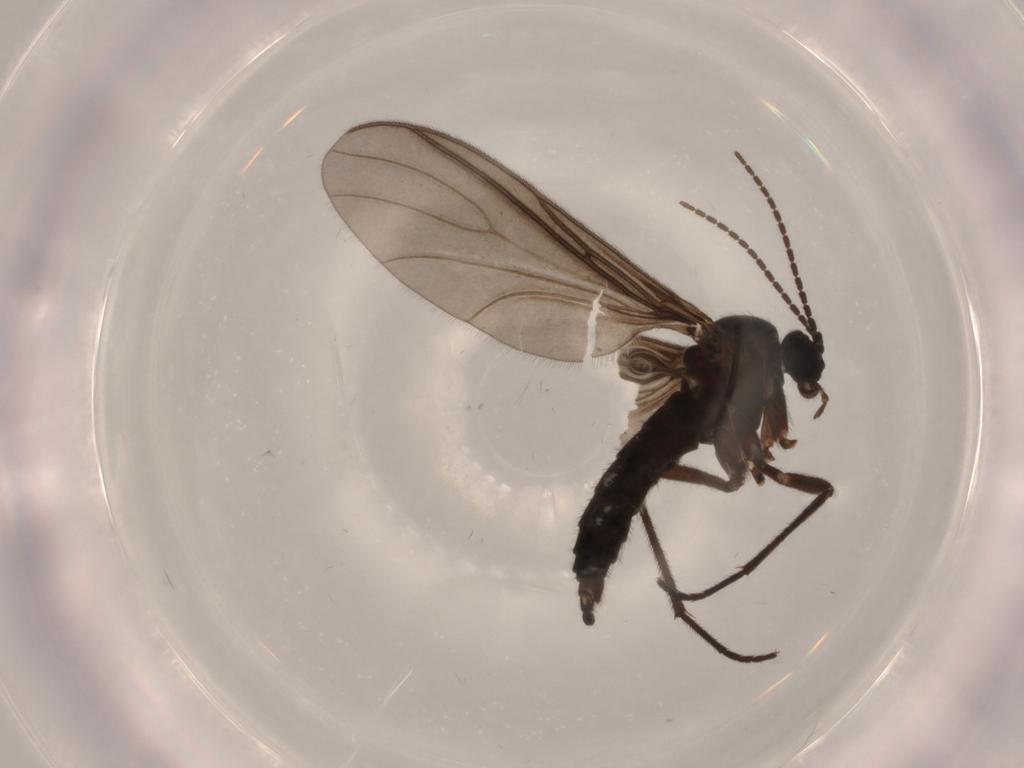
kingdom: Animalia
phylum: Arthropoda
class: Insecta
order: Diptera
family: Sciaridae
